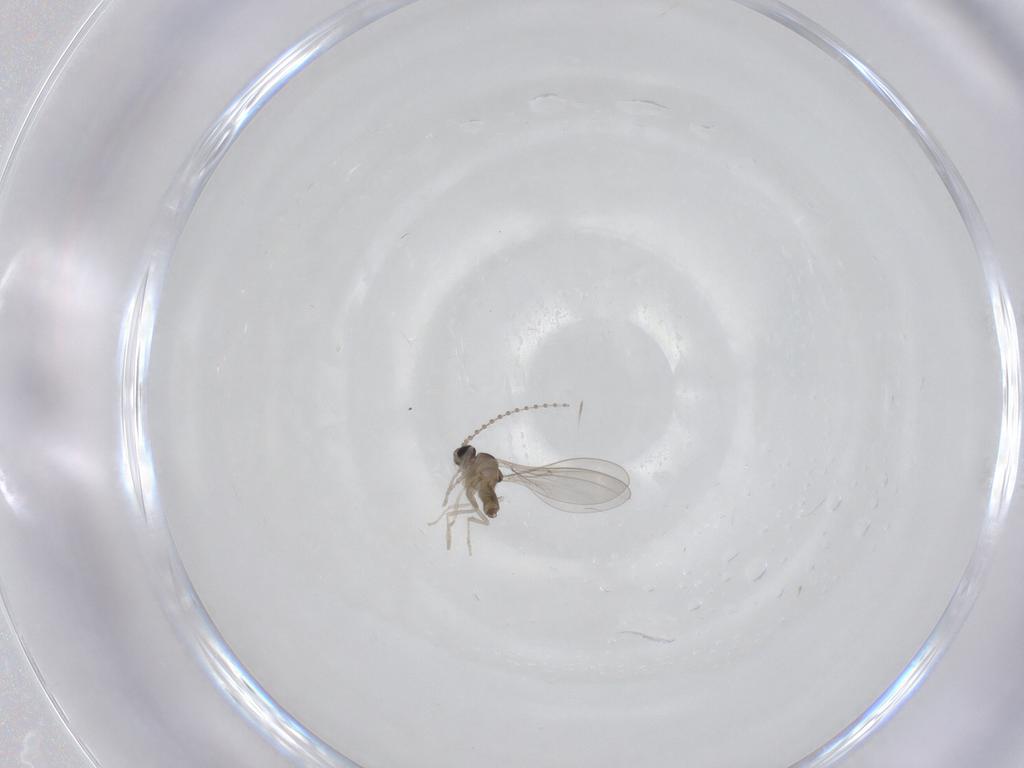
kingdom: Animalia
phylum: Arthropoda
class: Insecta
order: Diptera
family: Cecidomyiidae
